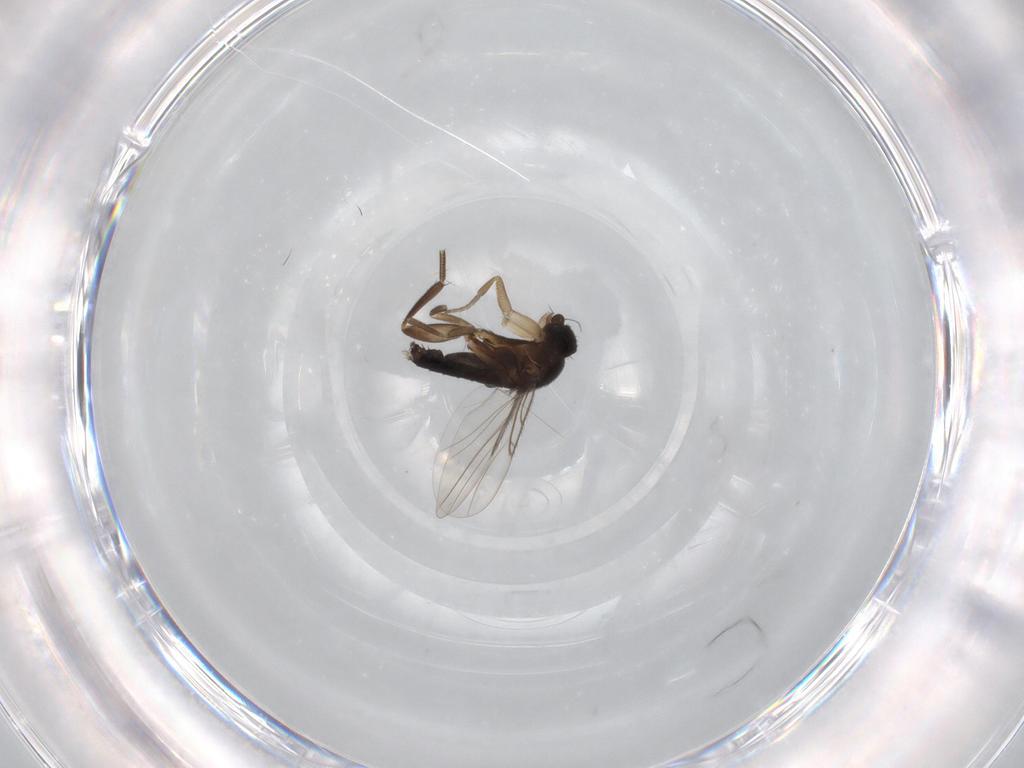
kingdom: Animalia
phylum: Arthropoda
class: Insecta
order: Diptera
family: Phoridae
